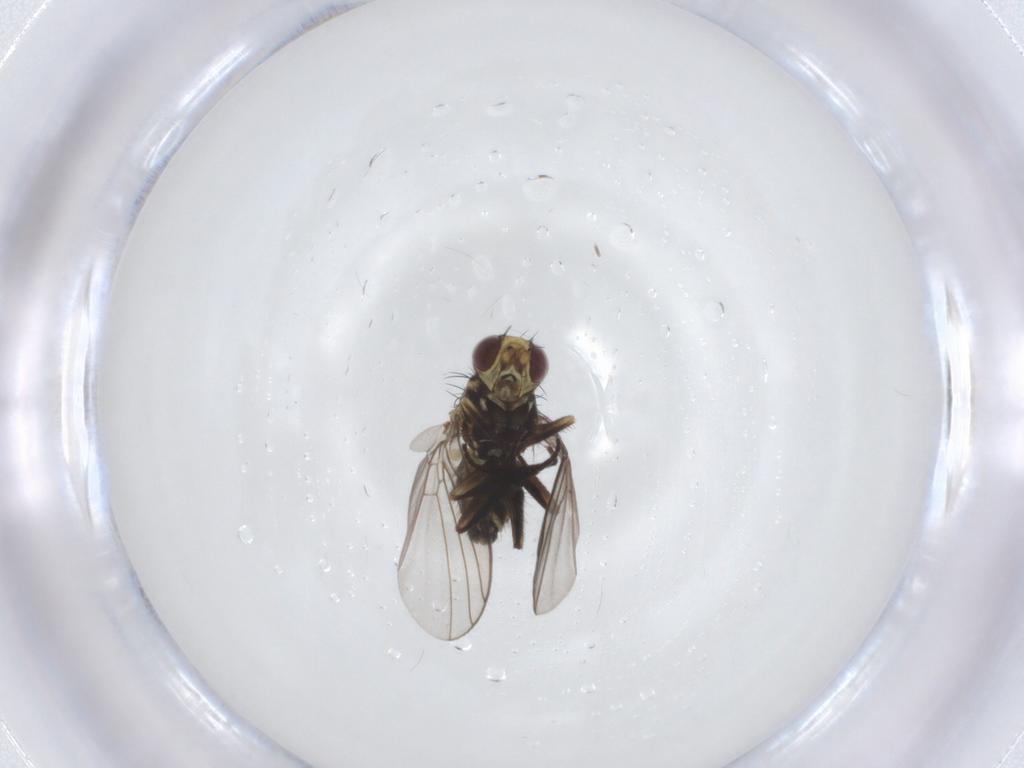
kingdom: Animalia
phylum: Arthropoda
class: Insecta
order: Diptera
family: Agromyzidae
